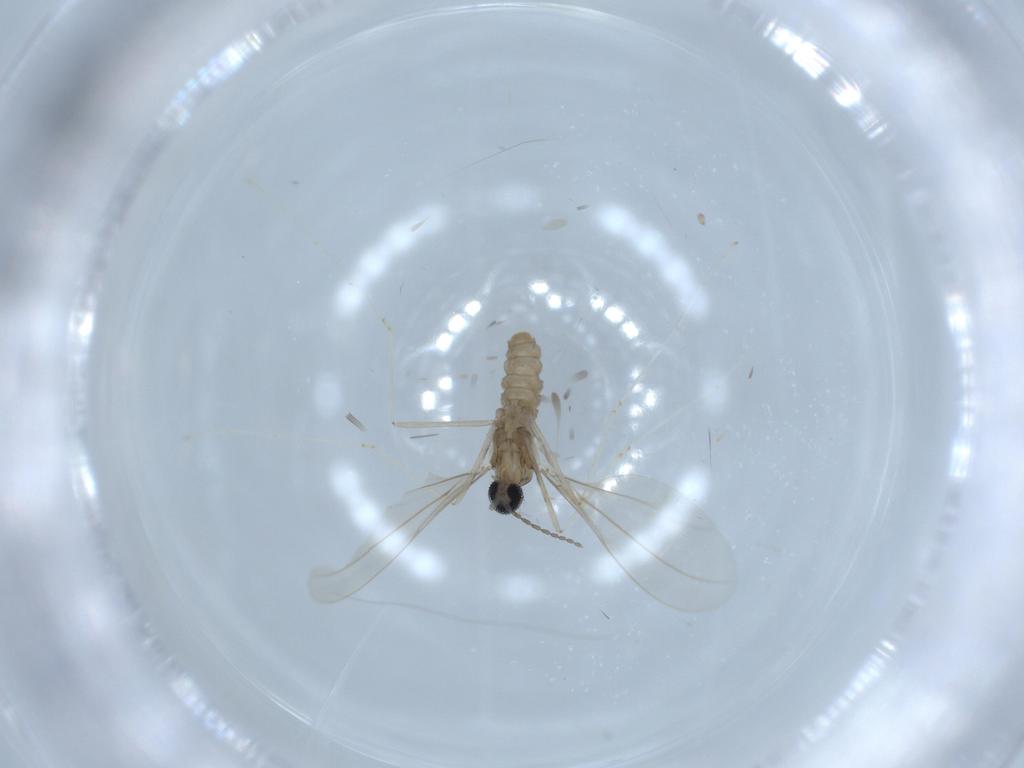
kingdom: Animalia
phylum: Arthropoda
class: Insecta
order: Diptera
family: Cecidomyiidae
